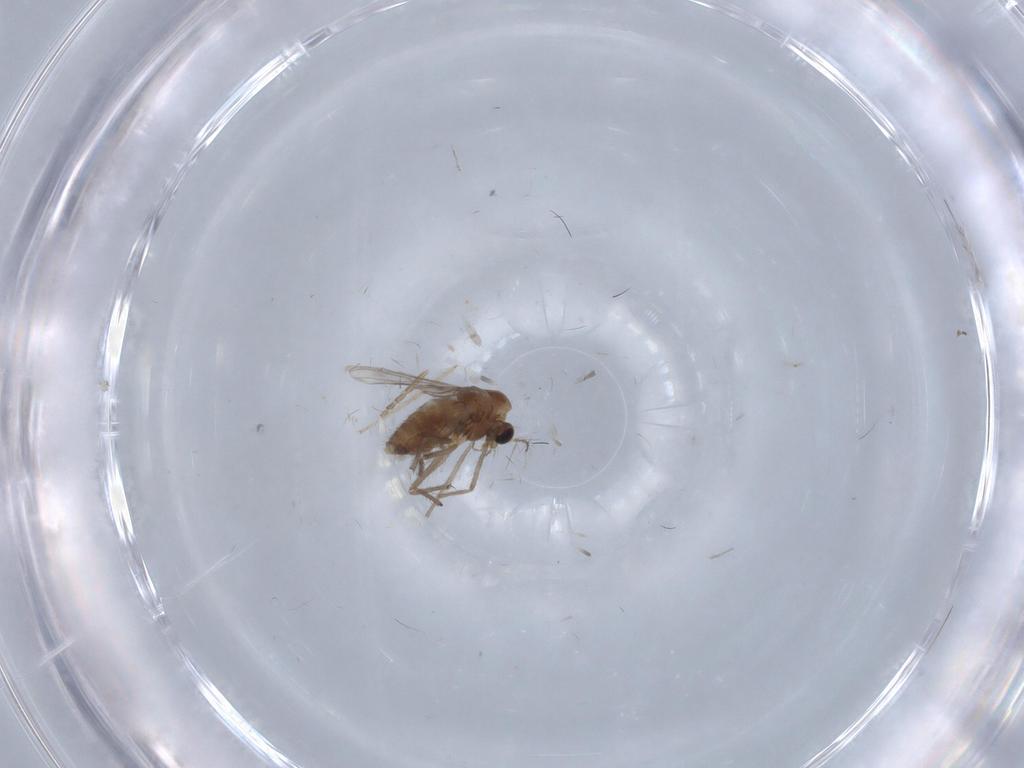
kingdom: Animalia
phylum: Arthropoda
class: Insecta
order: Diptera
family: Chironomidae
